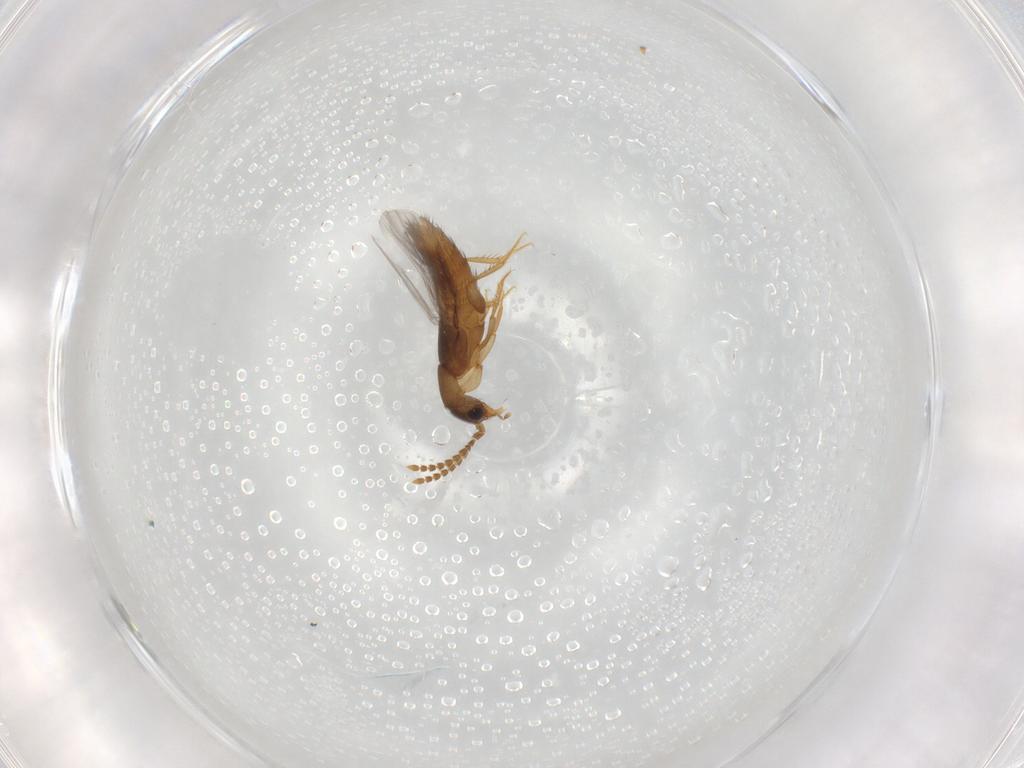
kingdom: Animalia
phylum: Arthropoda
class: Insecta
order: Coleoptera
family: Staphylinidae
